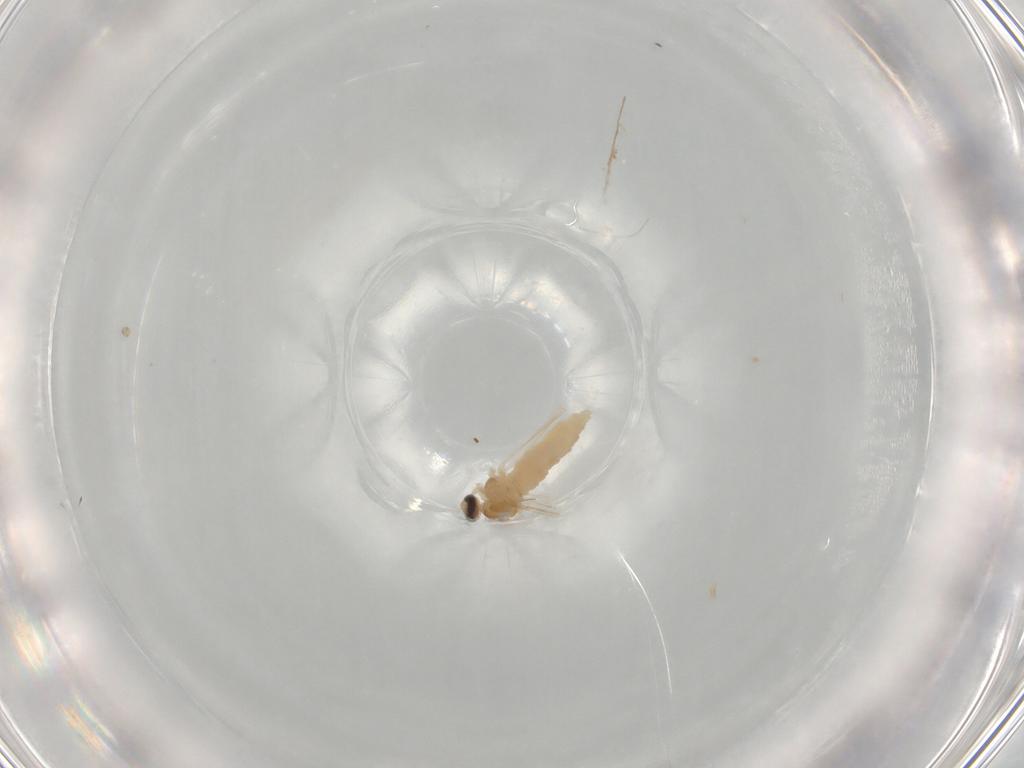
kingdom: Animalia
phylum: Arthropoda
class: Insecta
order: Diptera
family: Cecidomyiidae
